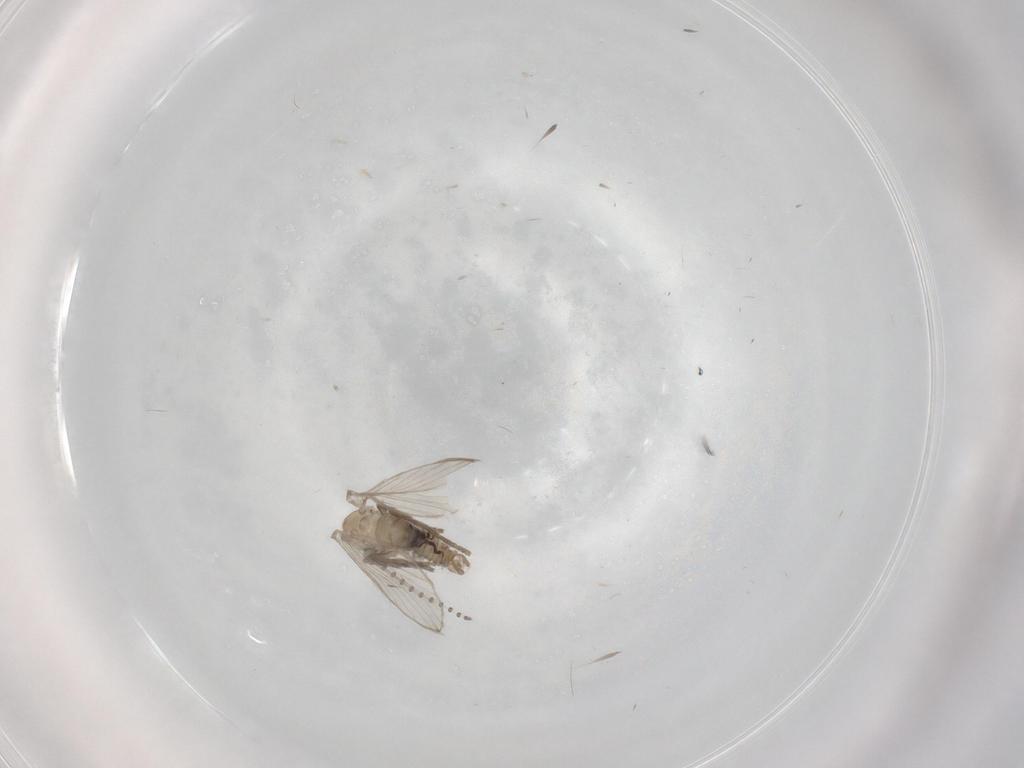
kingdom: Animalia
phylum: Arthropoda
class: Insecta
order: Diptera
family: Psychodidae
